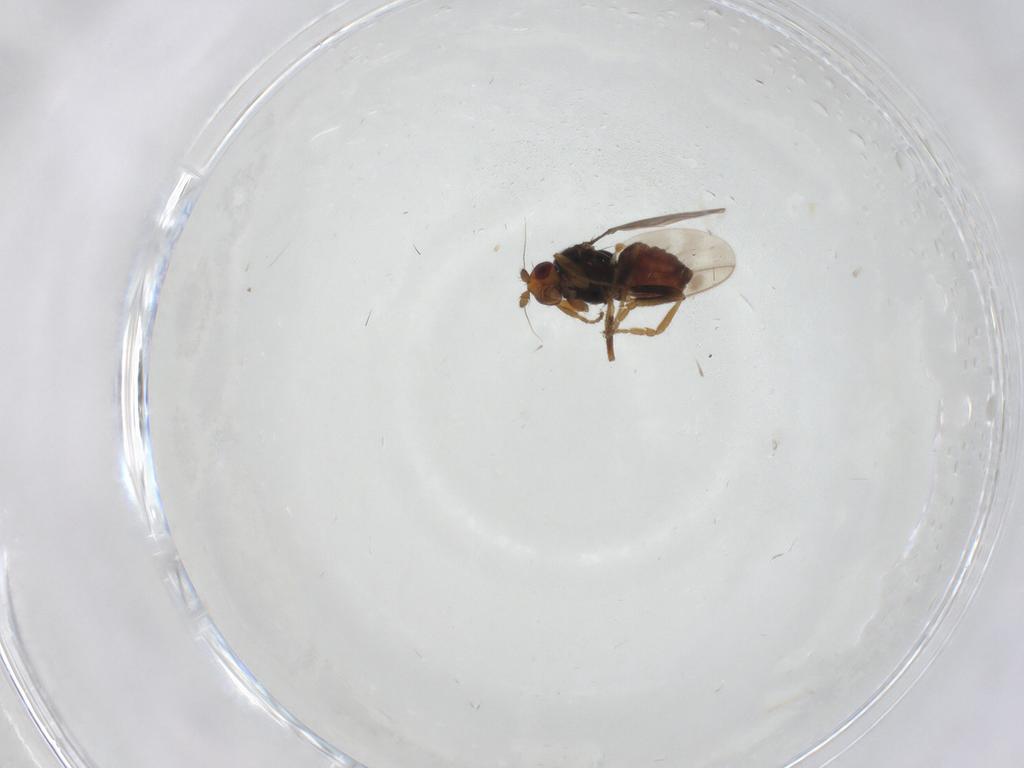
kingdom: Animalia
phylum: Arthropoda
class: Insecta
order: Diptera
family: Sphaeroceridae
